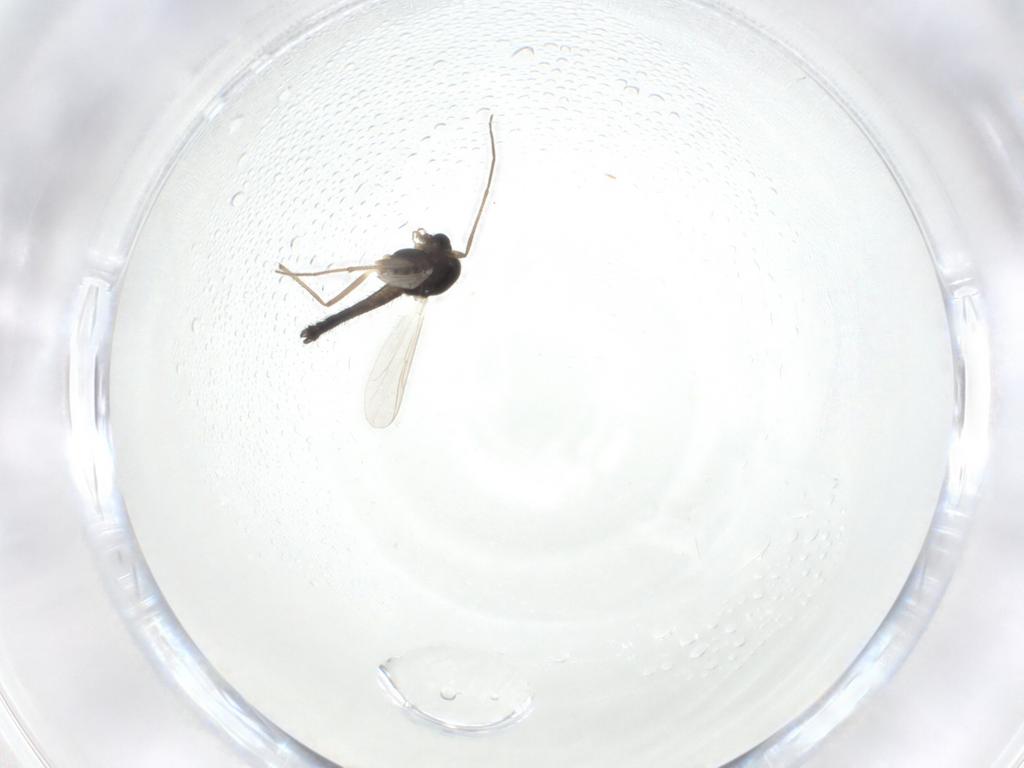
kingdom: Animalia
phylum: Arthropoda
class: Insecta
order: Diptera
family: Chironomidae
